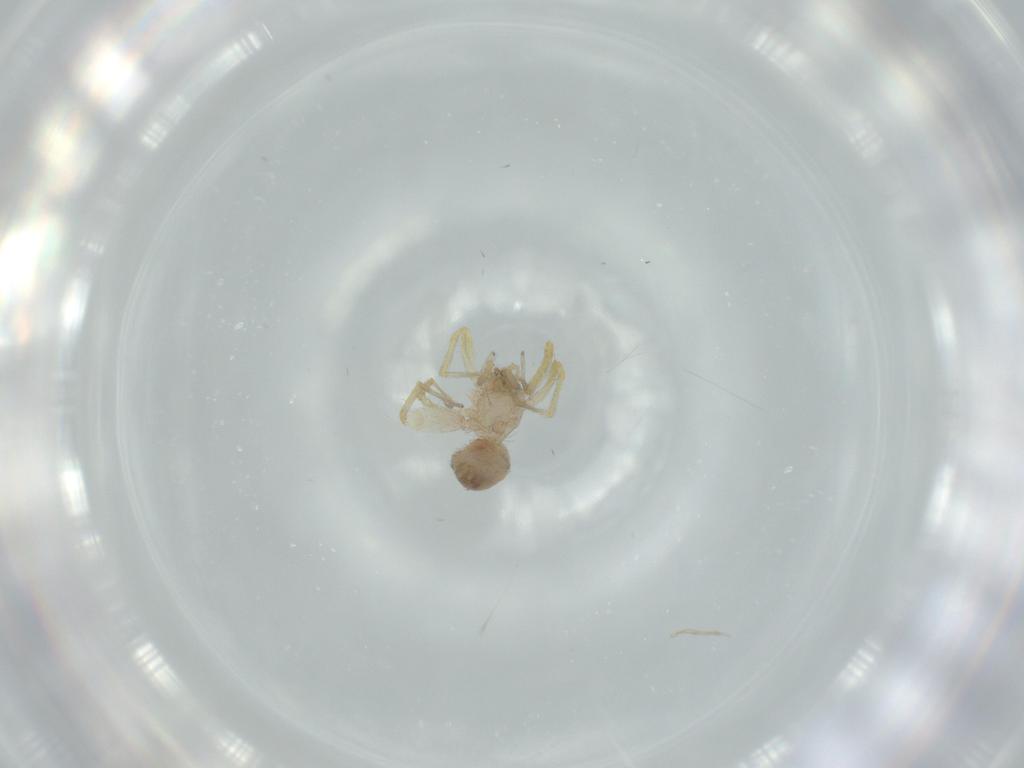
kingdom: Animalia
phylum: Arthropoda
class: Arachnida
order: Araneae
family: Oonopidae
